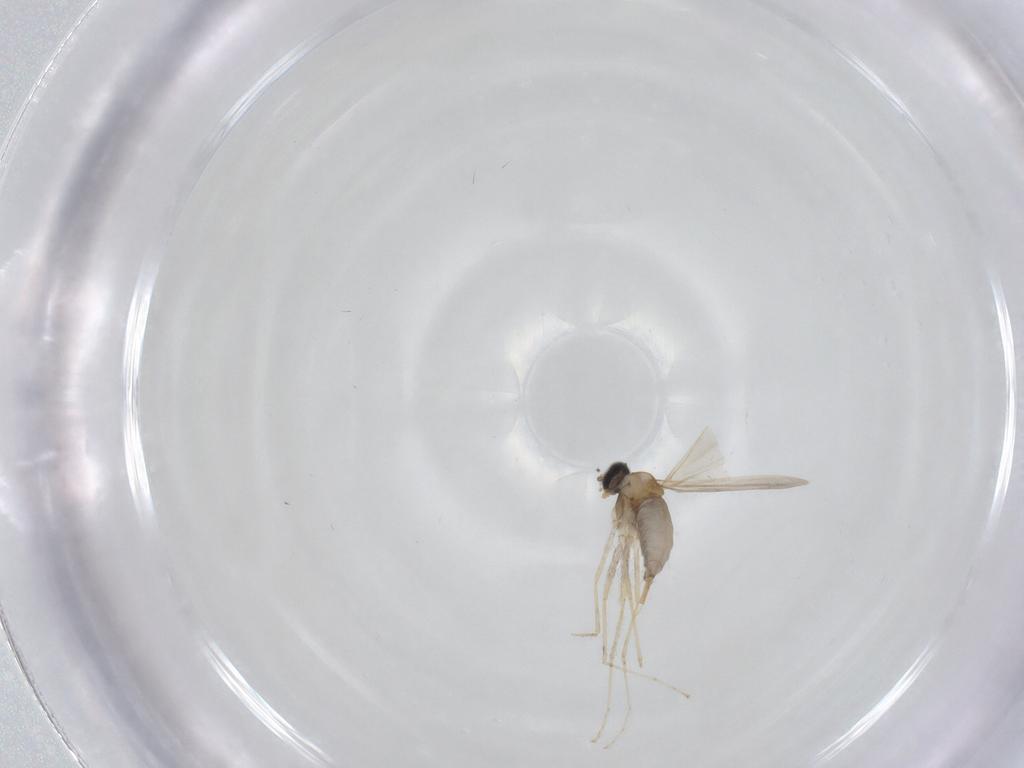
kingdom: Animalia
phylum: Arthropoda
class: Insecta
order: Diptera
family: Cecidomyiidae
